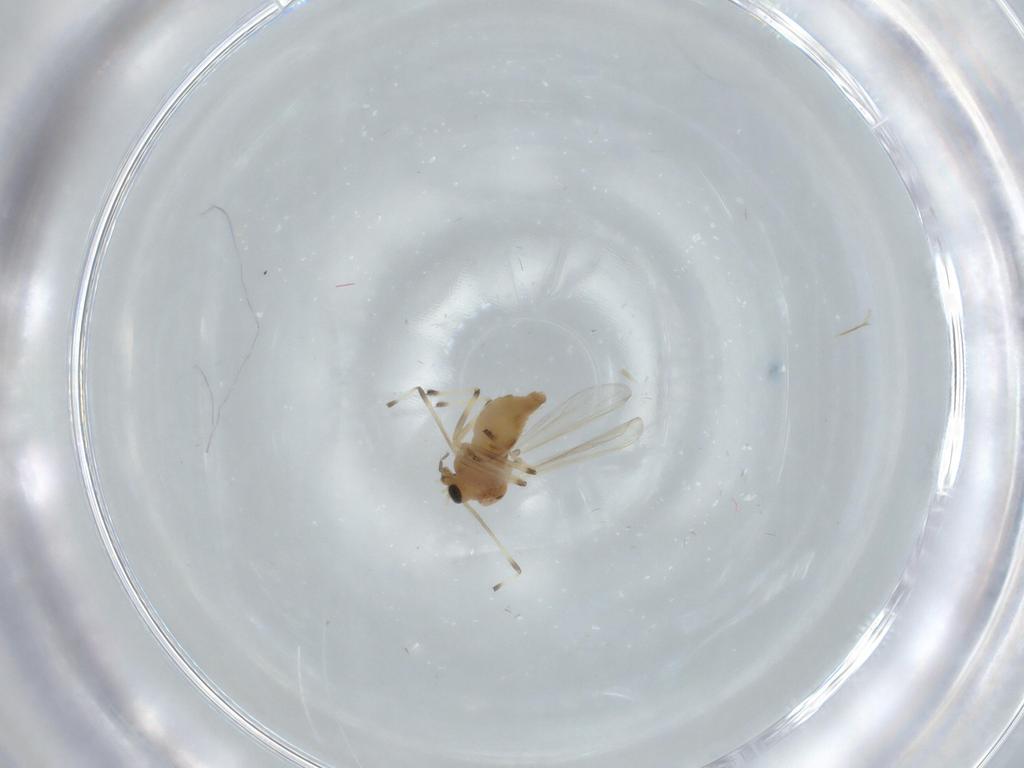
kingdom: Animalia
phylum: Arthropoda
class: Insecta
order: Diptera
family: Chironomidae
